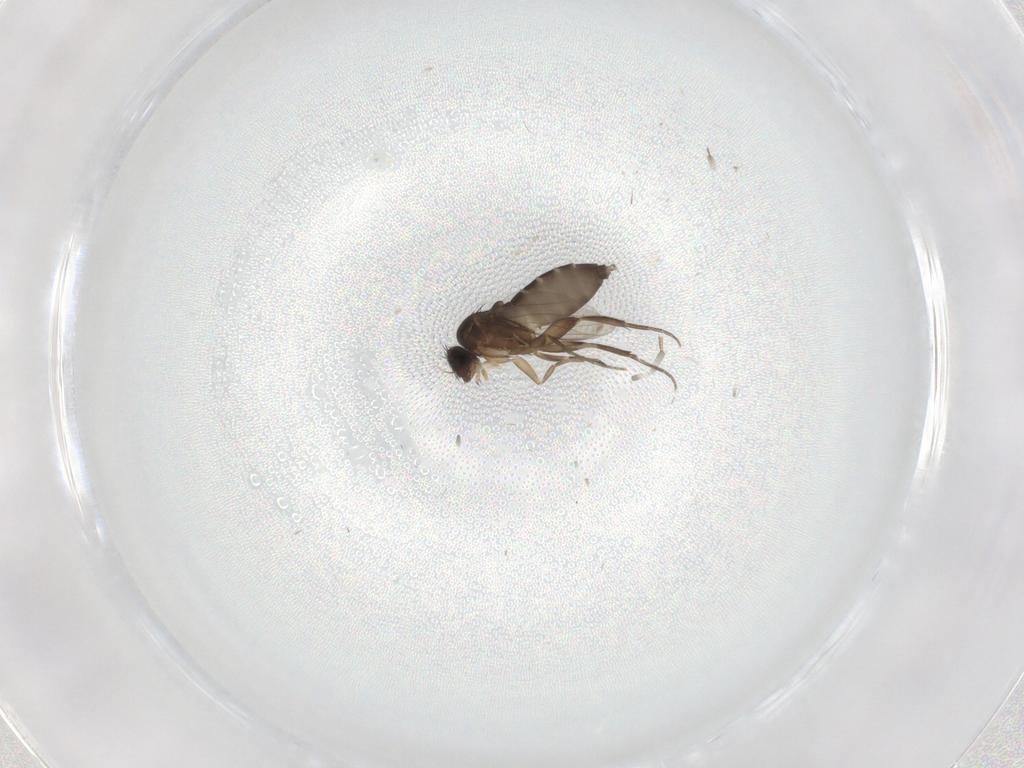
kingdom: Animalia
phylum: Arthropoda
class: Insecta
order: Diptera
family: Phoridae
